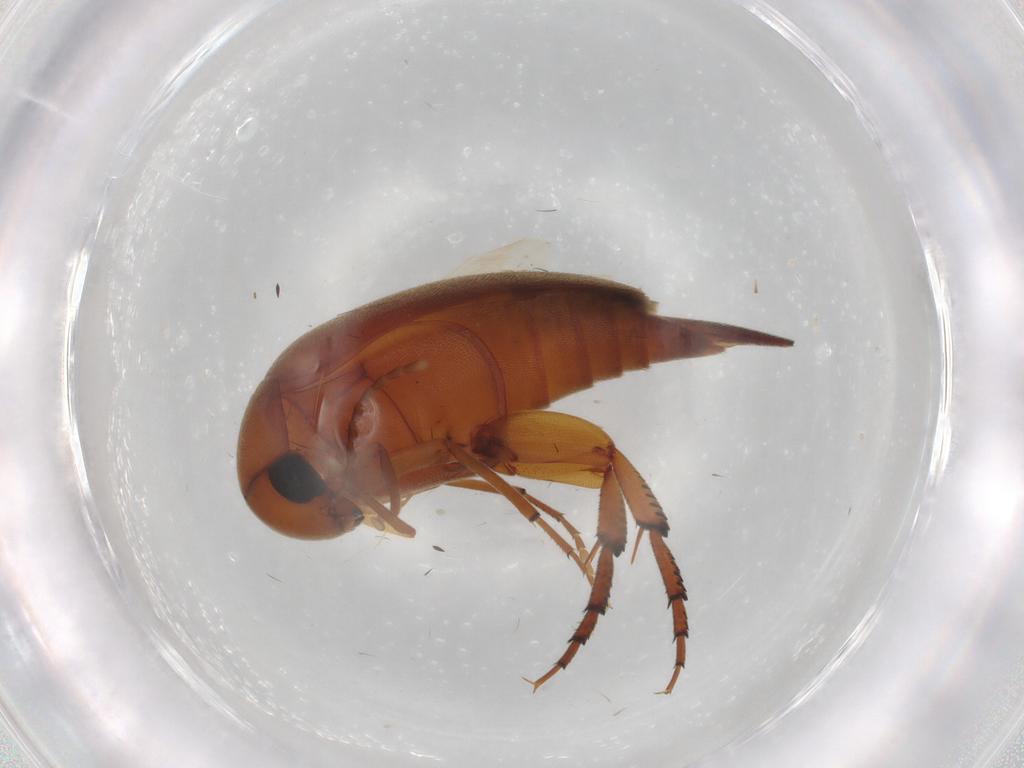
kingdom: Animalia
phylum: Arthropoda
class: Insecta
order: Coleoptera
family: Mordellidae
